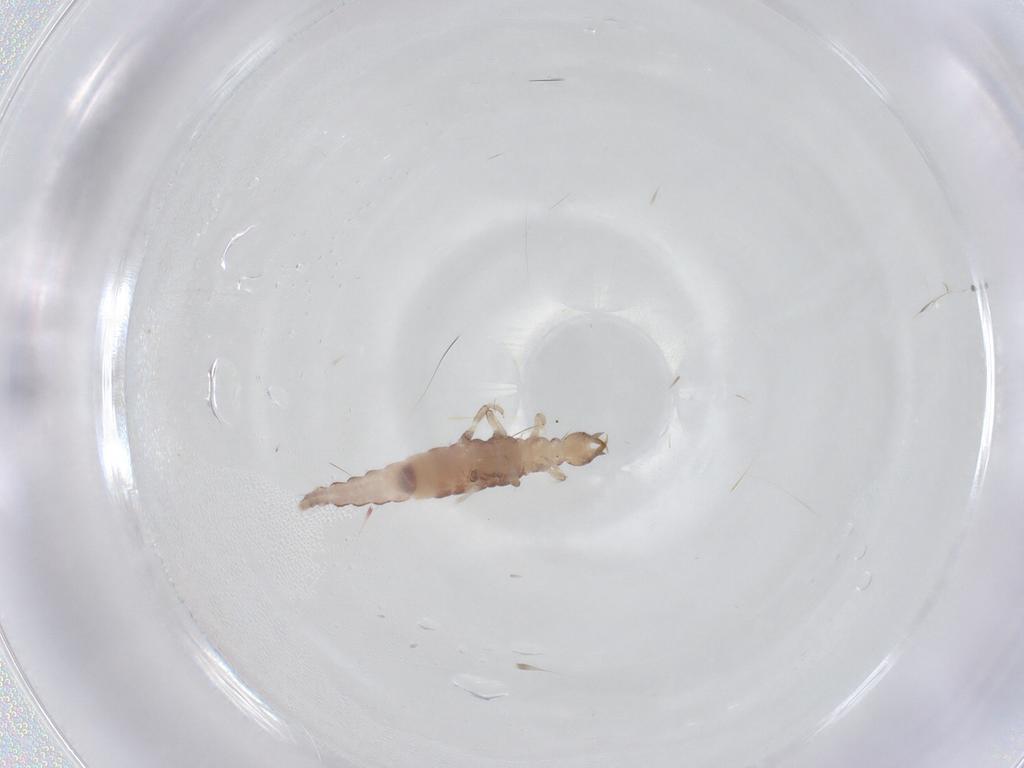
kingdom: Animalia
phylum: Arthropoda
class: Insecta
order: Neuroptera
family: Hemerobiidae
